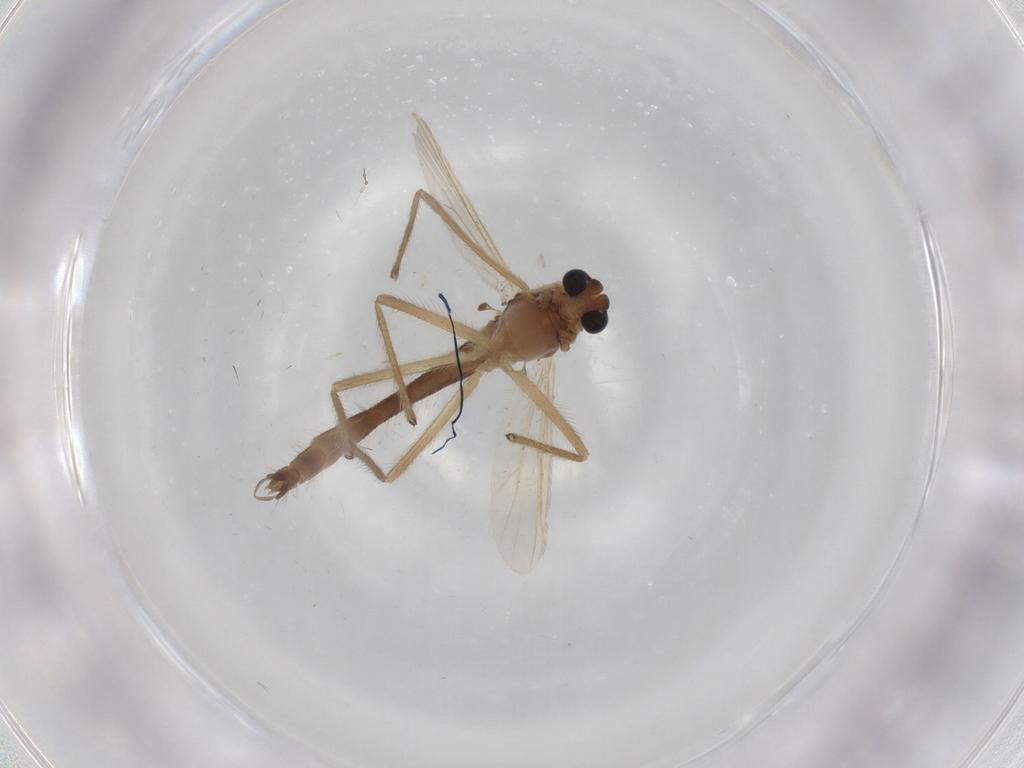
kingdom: Animalia
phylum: Arthropoda
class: Insecta
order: Diptera
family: Chironomidae
